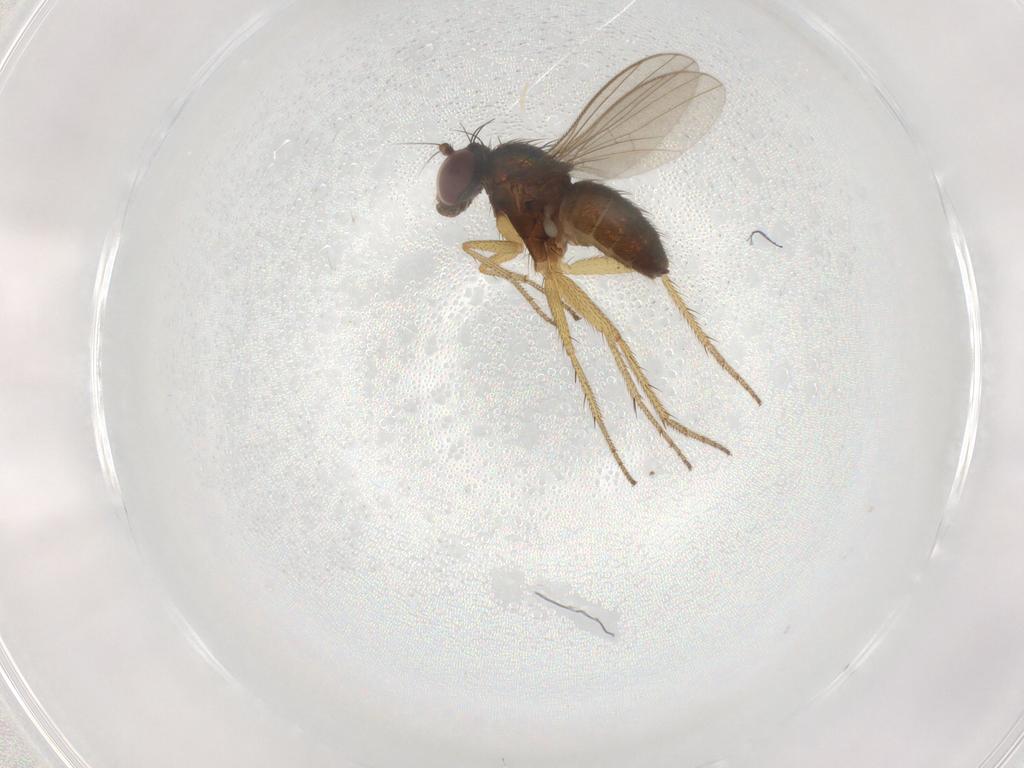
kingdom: Animalia
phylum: Arthropoda
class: Insecta
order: Diptera
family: Dolichopodidae
